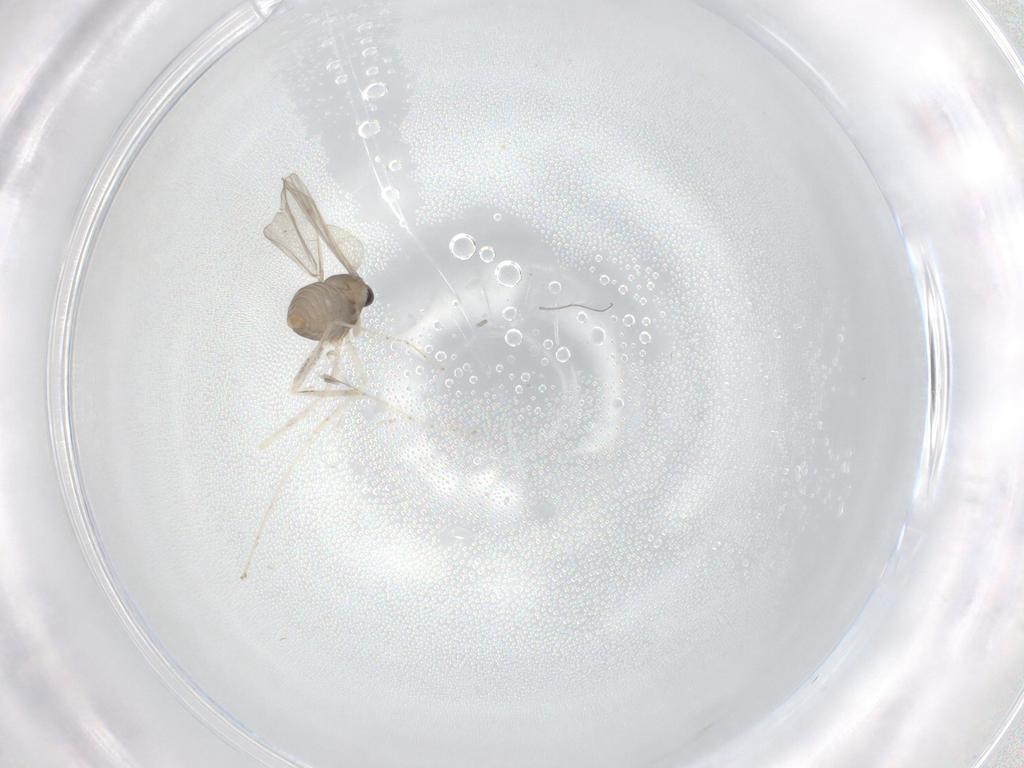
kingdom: Animalia
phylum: Arthropoda
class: Insecta
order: Diptera
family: Cecidomyiidae
